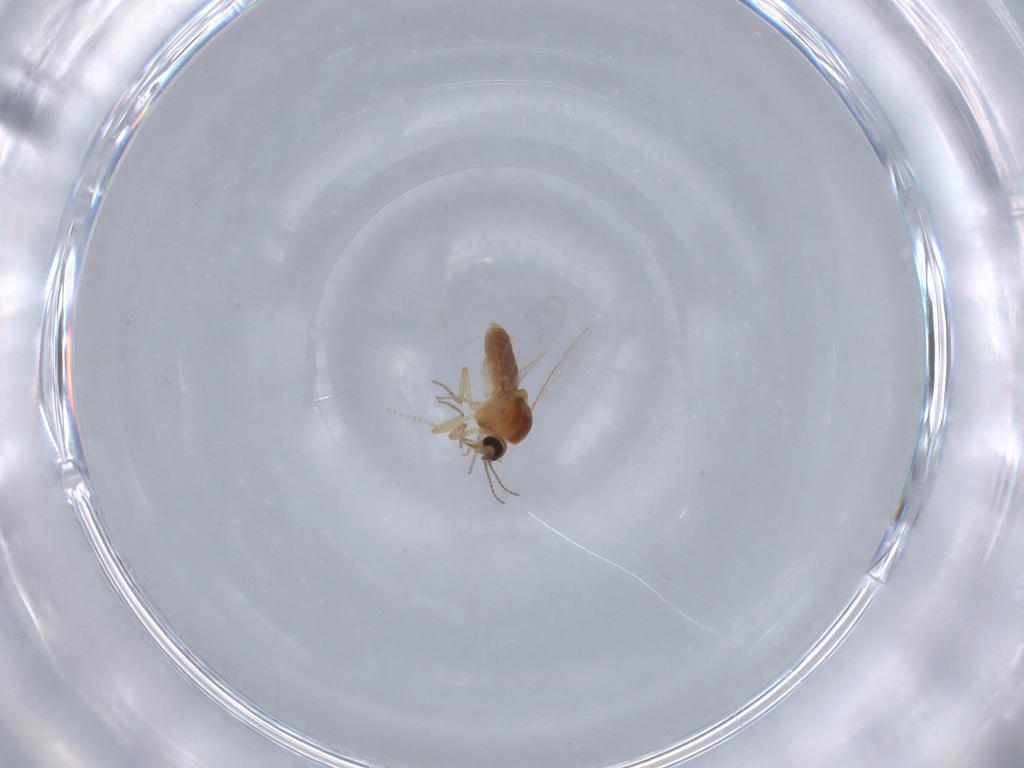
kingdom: Animalia
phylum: Arthropoda
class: Insecta
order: Diptera
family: Ceratopogonidae
